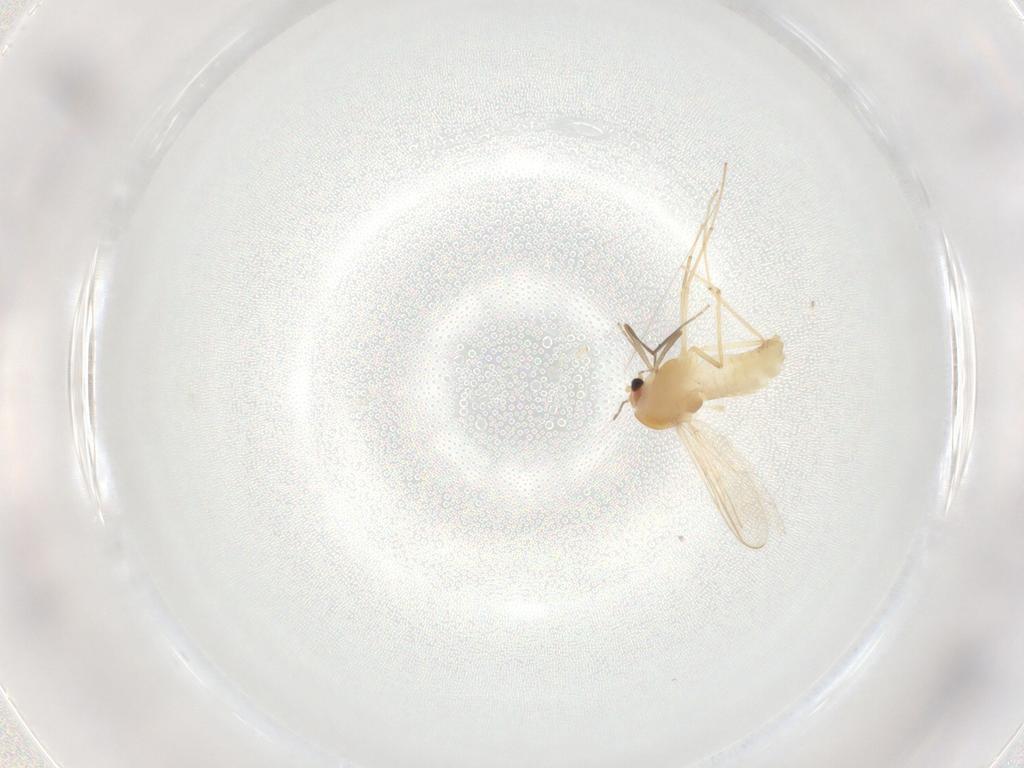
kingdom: Animalia
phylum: Arthropoda
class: Insecta
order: Diptera
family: Chironomidae
